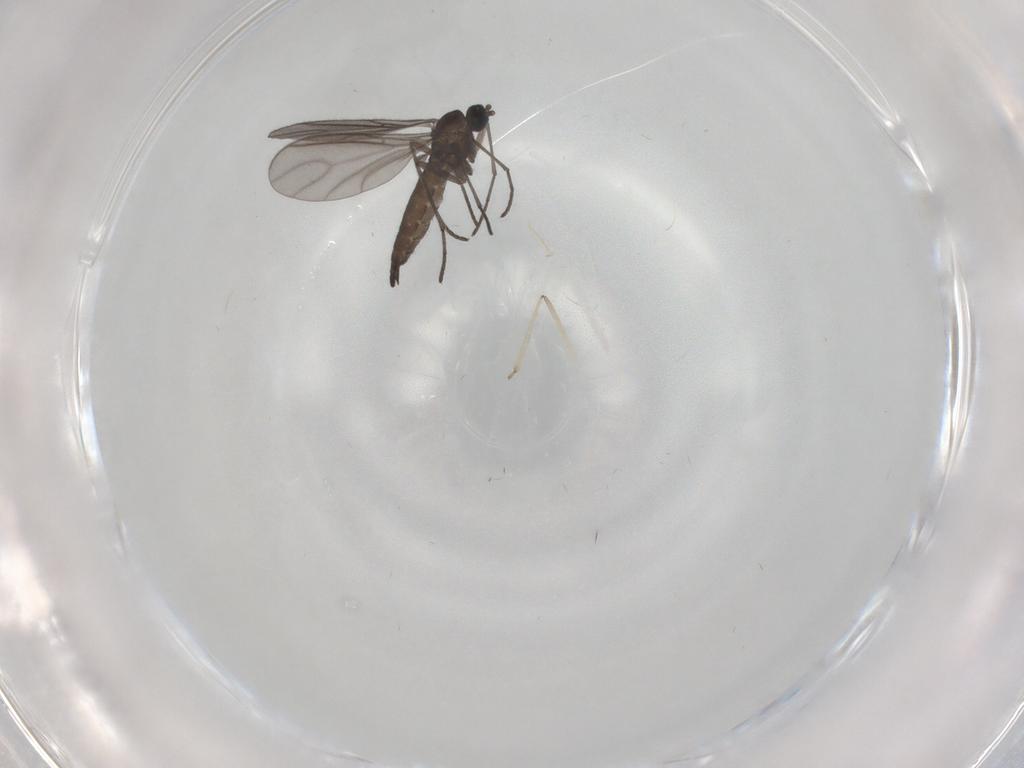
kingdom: Animalia
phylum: Arthropoda
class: Insecta
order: Diptera
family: Cecidomyiidae
